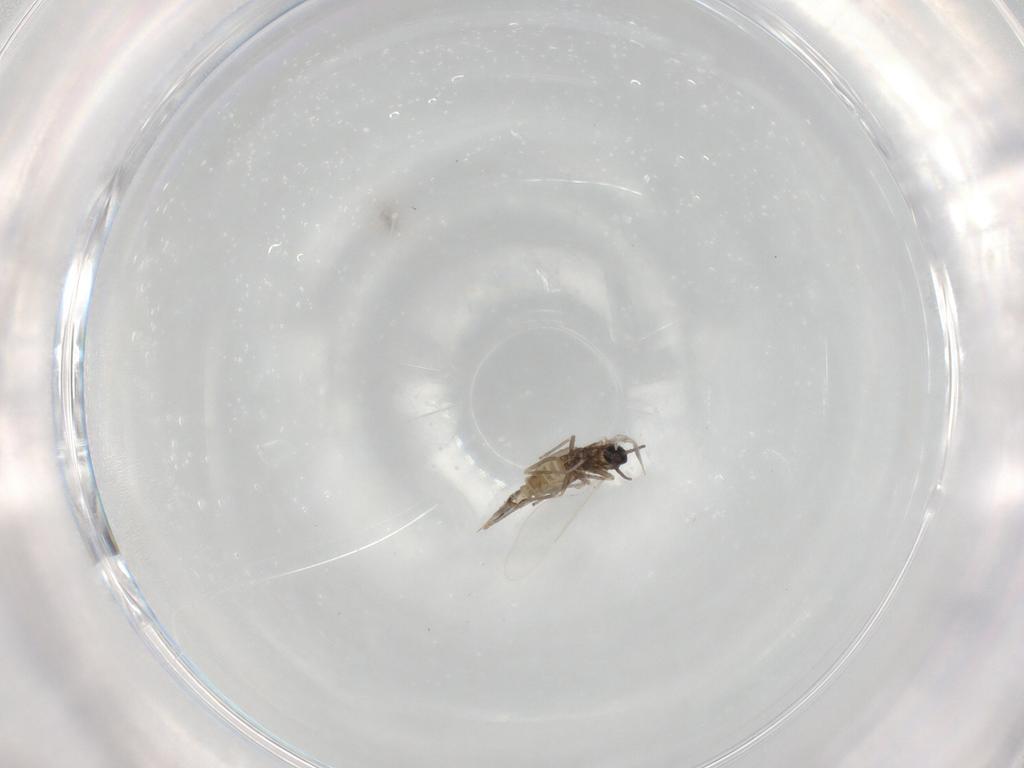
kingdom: Animalia
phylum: Arthropoda
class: Insecta
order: Diptera
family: Cecidomyiidae
